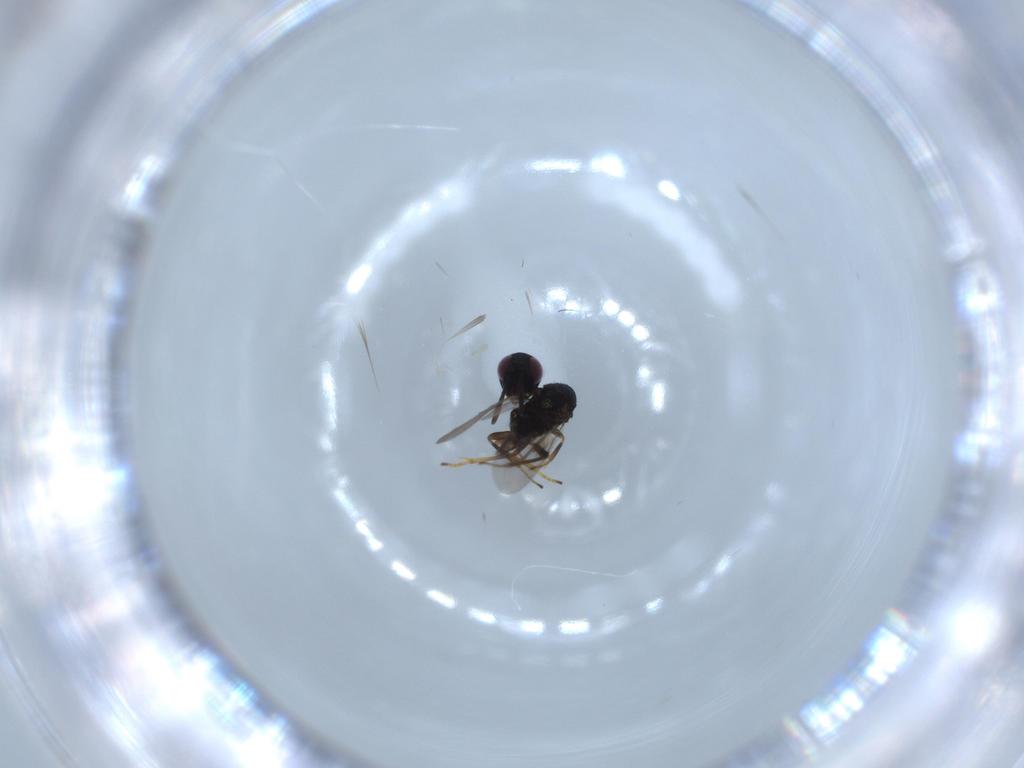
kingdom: Animalia
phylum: Arthropoda
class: Insecta
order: Hymenoptera
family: Encyrtidae
